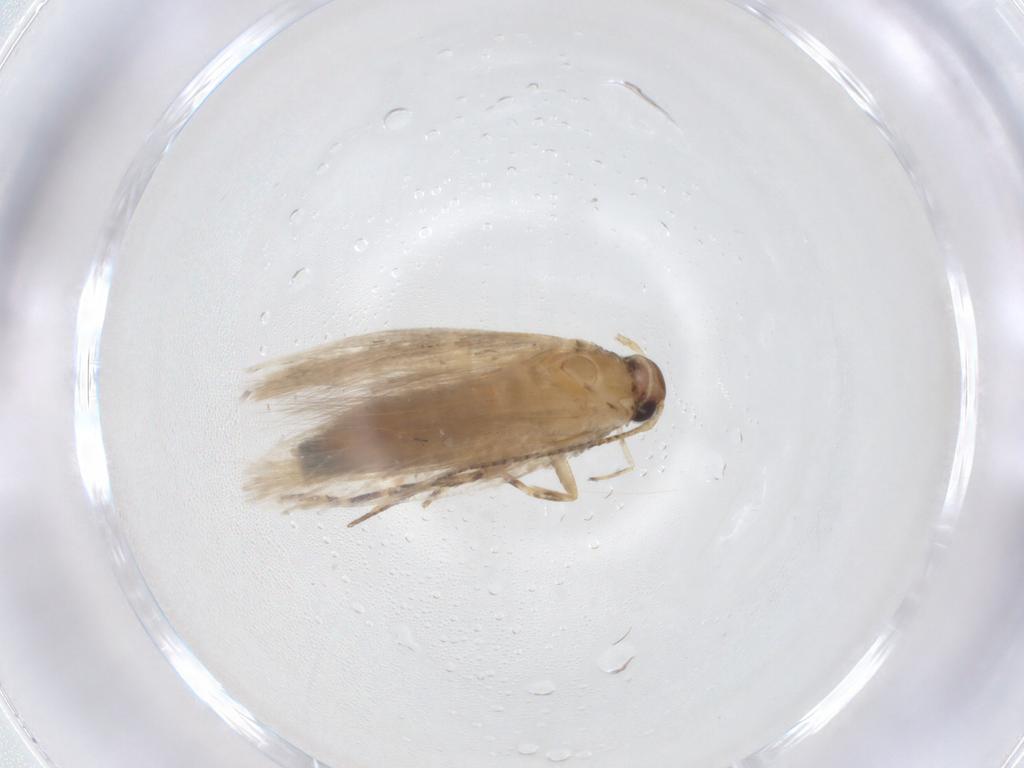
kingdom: Animalia
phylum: Arthropoda
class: Insecta
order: Lepidoptera
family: Gelechiidae
